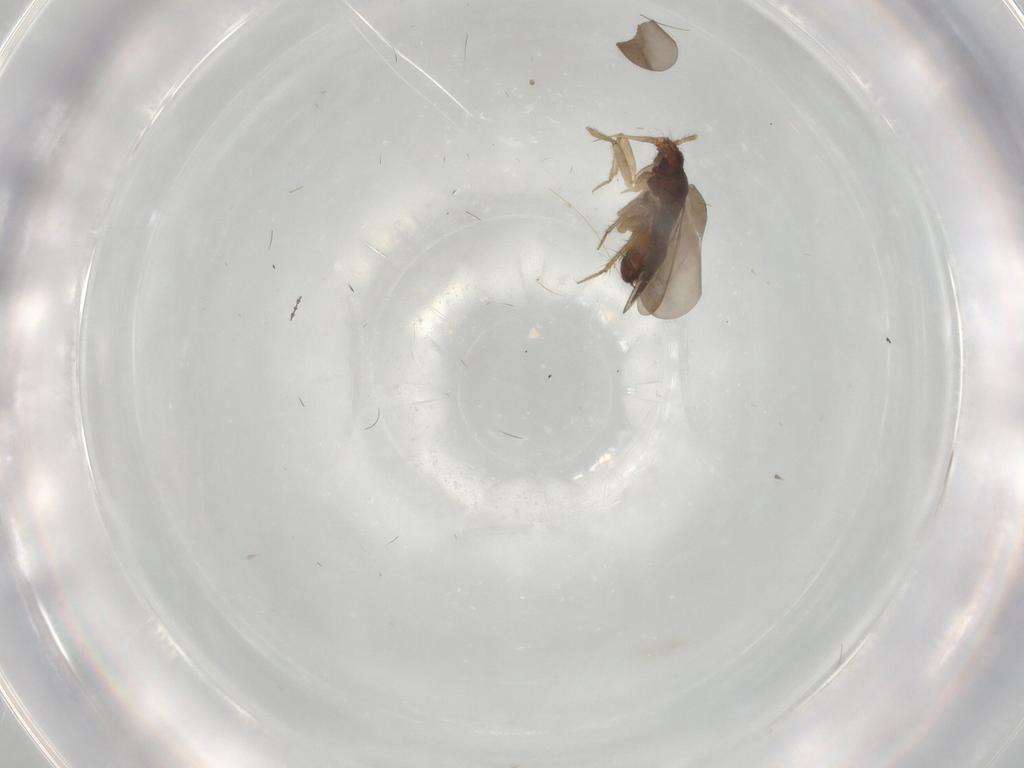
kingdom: Animalia
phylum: Arthropoda
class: Insecta
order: Hemiptera
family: Ceratocombidae
